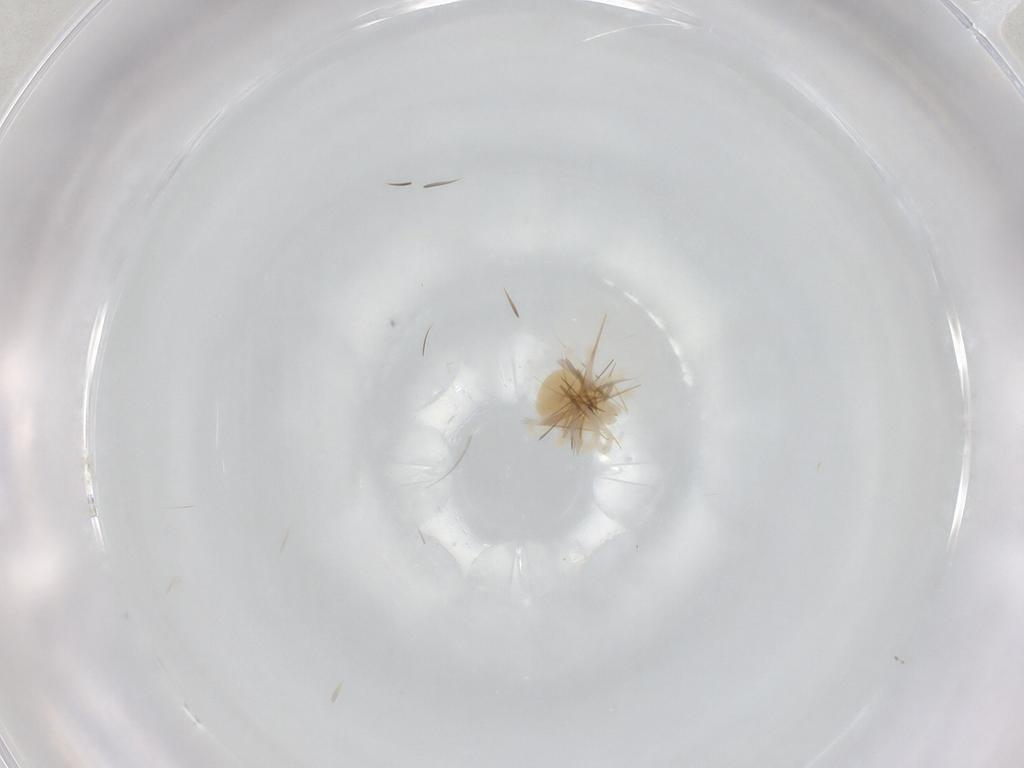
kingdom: Animalia
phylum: Arthropoda
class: Arachnida
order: Trombidiformes
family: Anystidae
